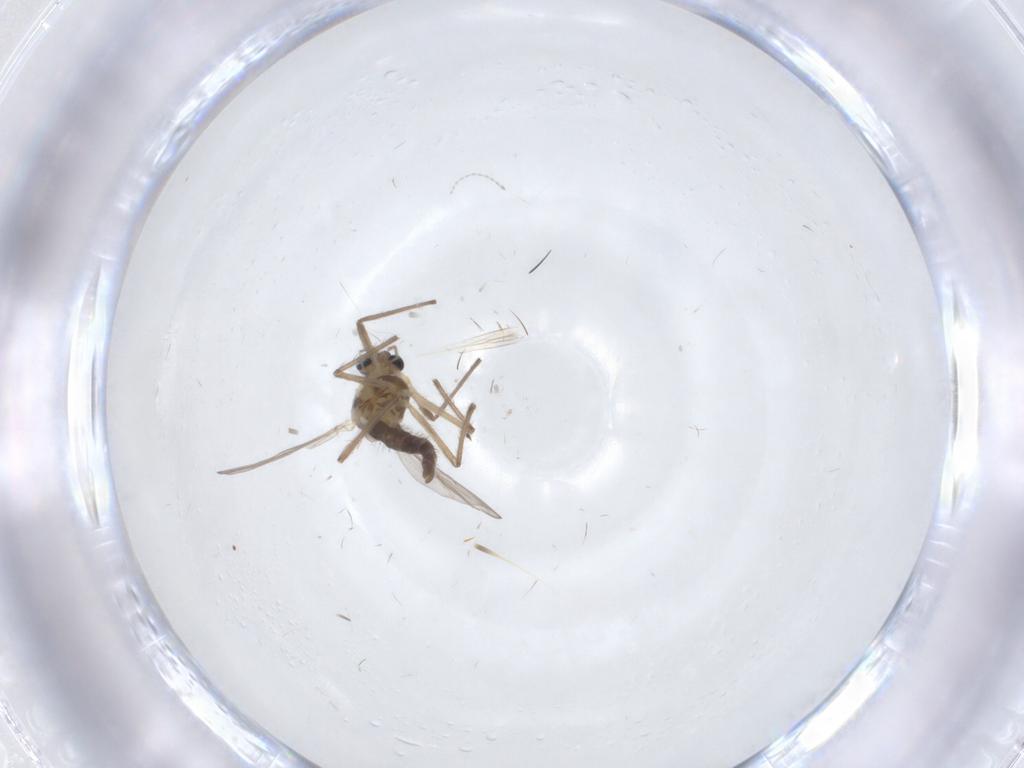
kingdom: Animalia
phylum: Arthropoda
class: Insecta
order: Diptera
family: Chironomidae
